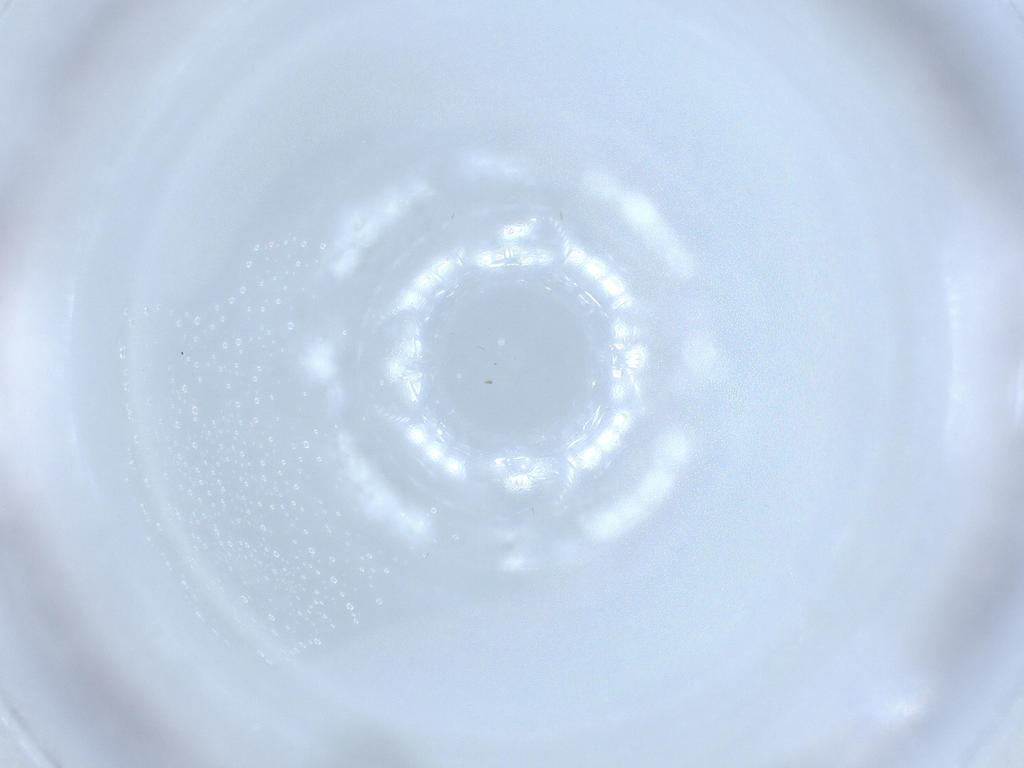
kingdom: Animalia
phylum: Arthropoda
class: Insecta
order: Diptera
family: Cecidomyiidae
